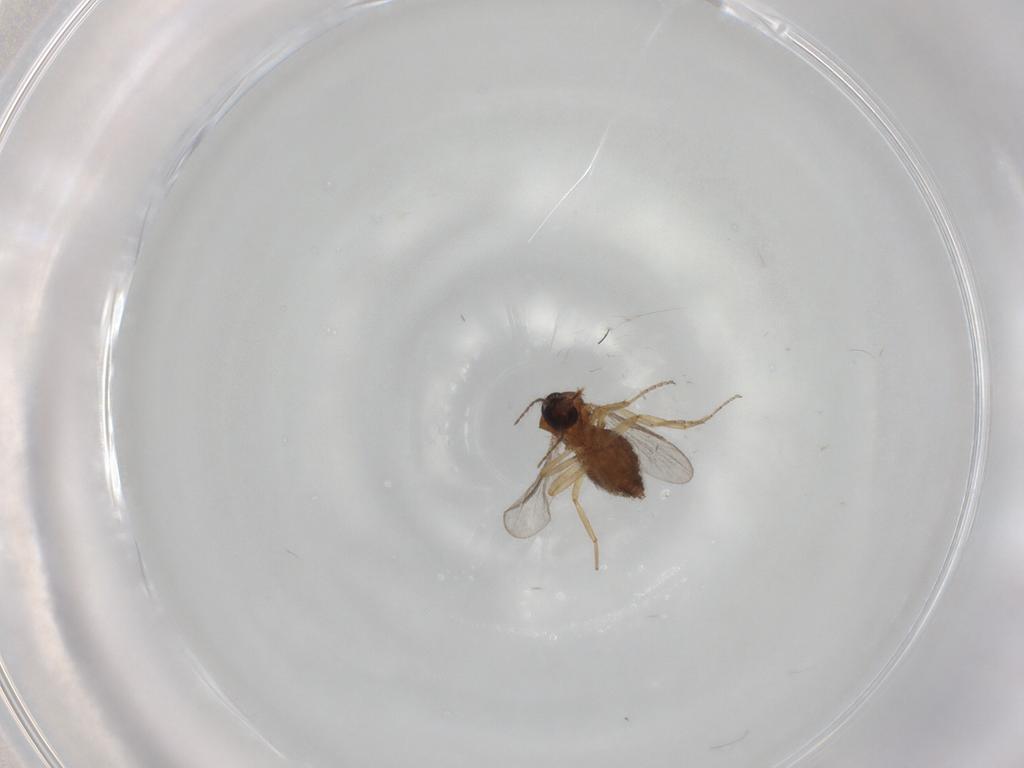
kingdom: Animalia
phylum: Arthropoda
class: Insecta
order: Diptera
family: Ceratopogonidae
